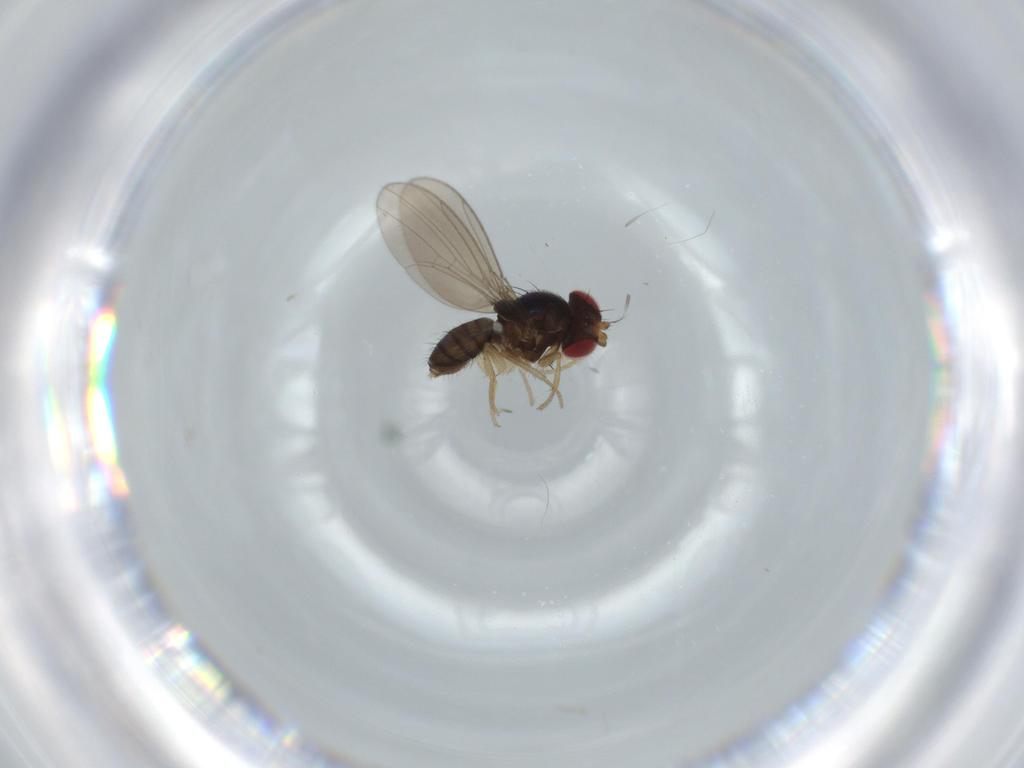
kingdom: Animalia
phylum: Arthropoda
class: Insecta
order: Diptera
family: Drosophilidae
